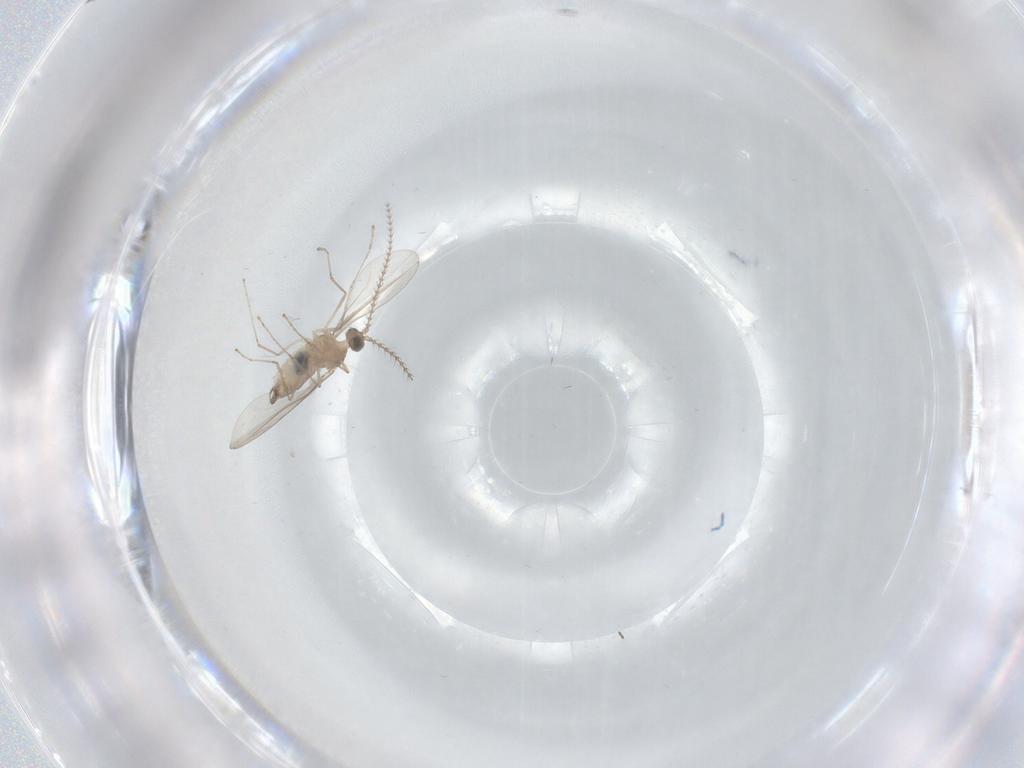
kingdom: Animalia
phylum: Arthropoda
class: Insecta
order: Diptera
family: Cecidomyiidae
